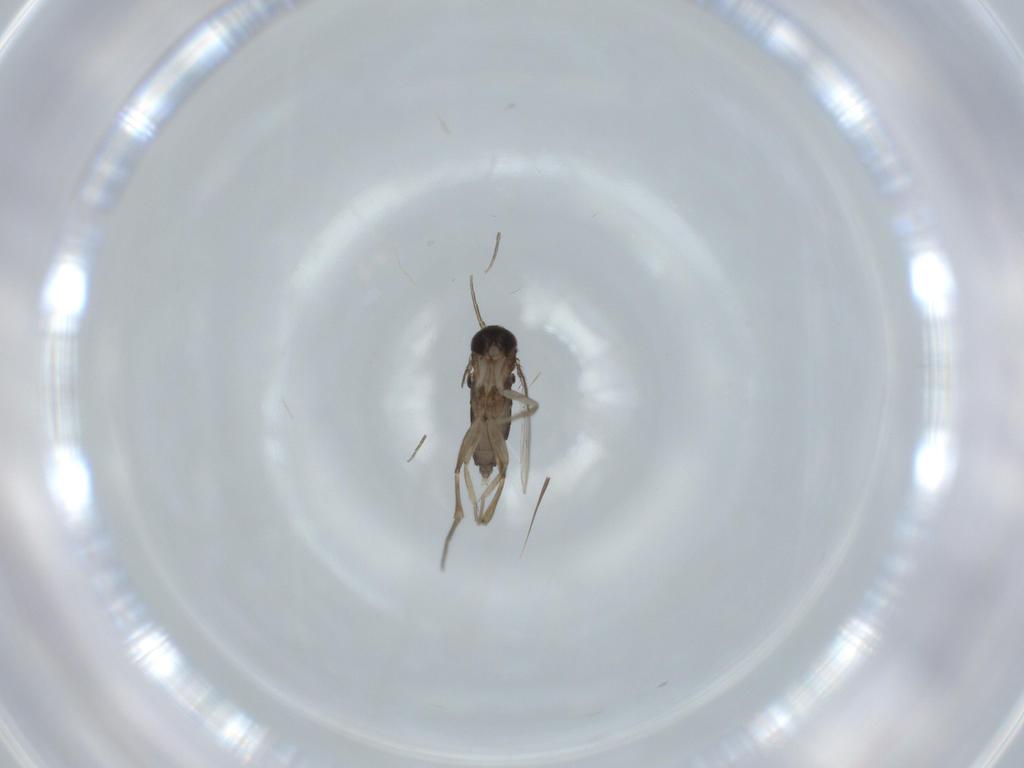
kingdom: Animalia
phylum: Arthropoda
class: Insecta
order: Diptera
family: Phoridae
